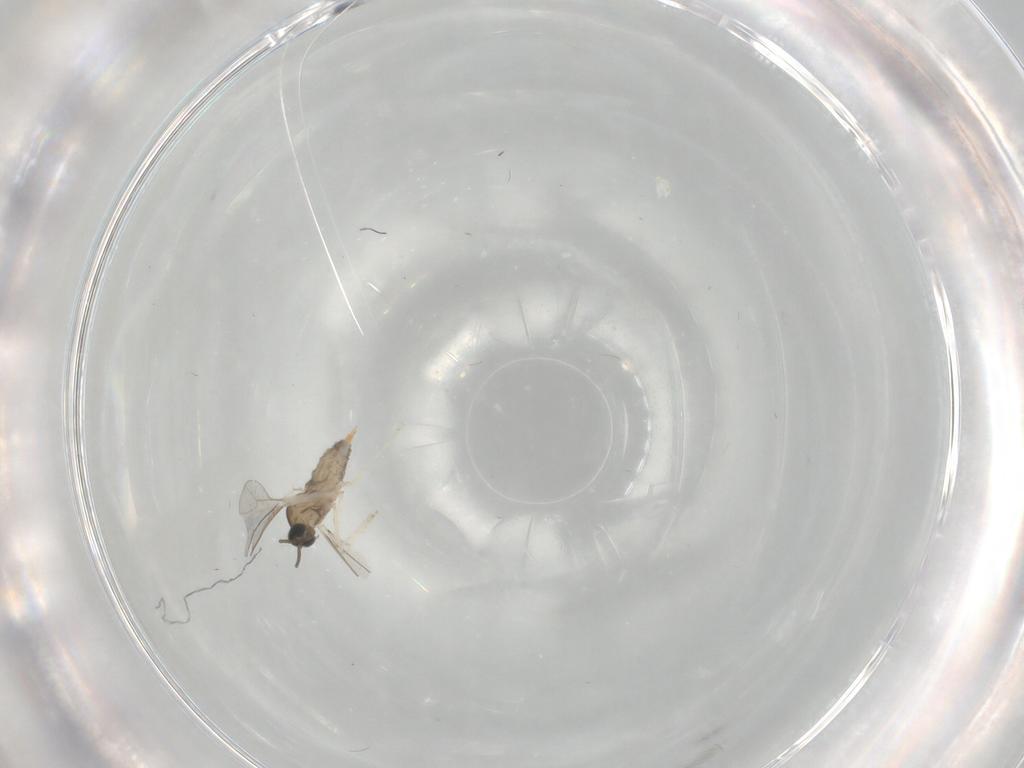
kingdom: Animalia
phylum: Arthropoda
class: Insecta
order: Diptera
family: Cecidomyiidae
